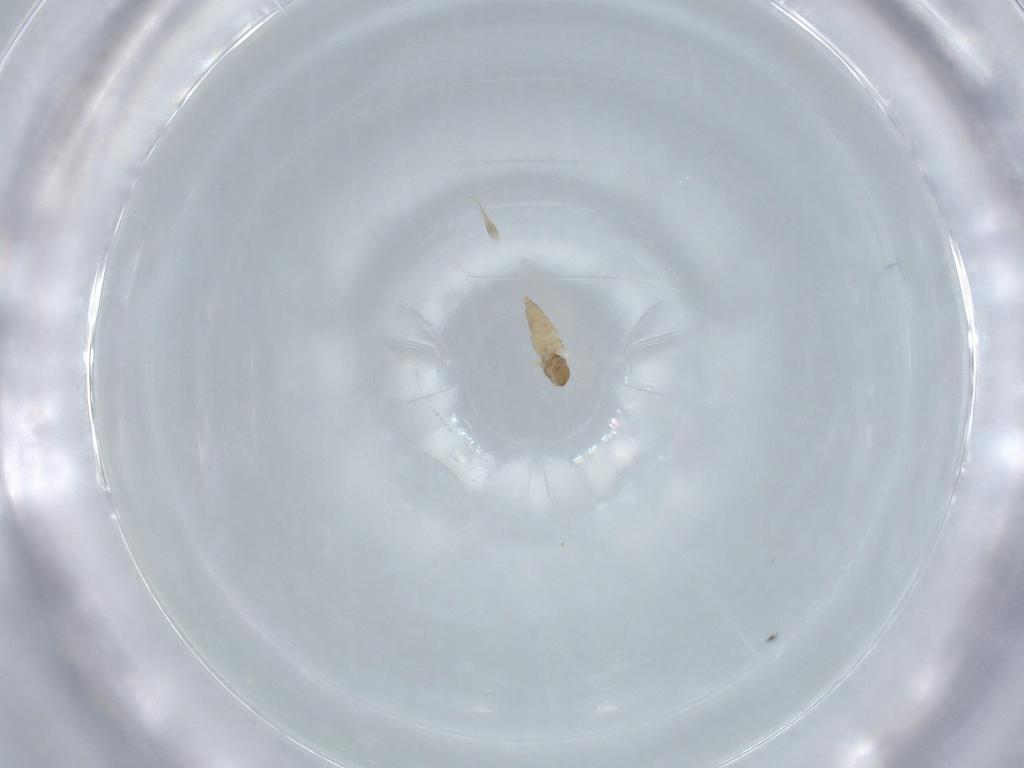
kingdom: Animalia
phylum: Arthropoda
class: Insecta
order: Diptera
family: Cecidomyiidae
